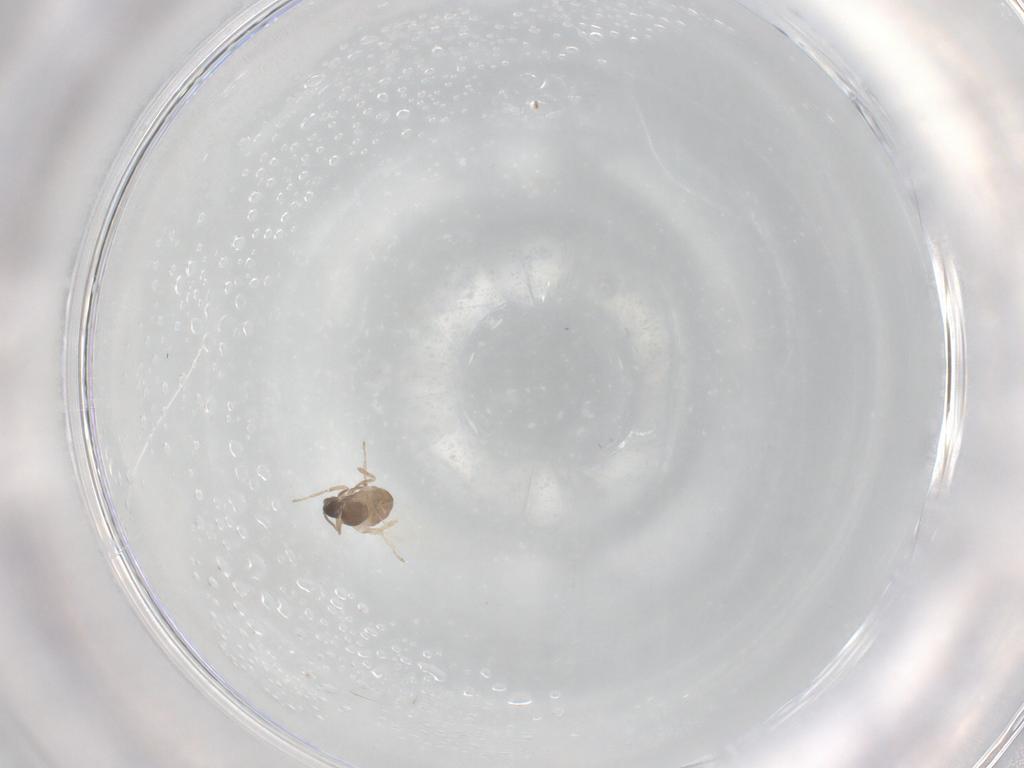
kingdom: Animalia
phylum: Arthropoda
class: Insecta
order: Diptera
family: Cecidomyiidae
